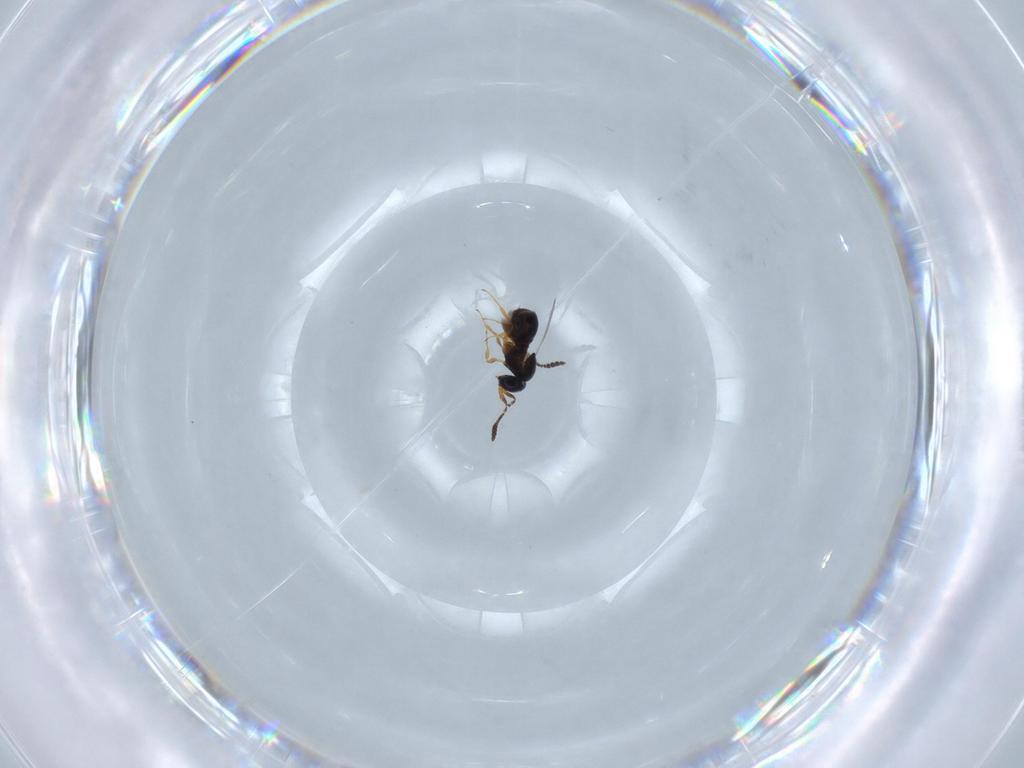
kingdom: Animalia
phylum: Arthropoda
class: Insecta
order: Hymenoptera
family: Scelionidae
